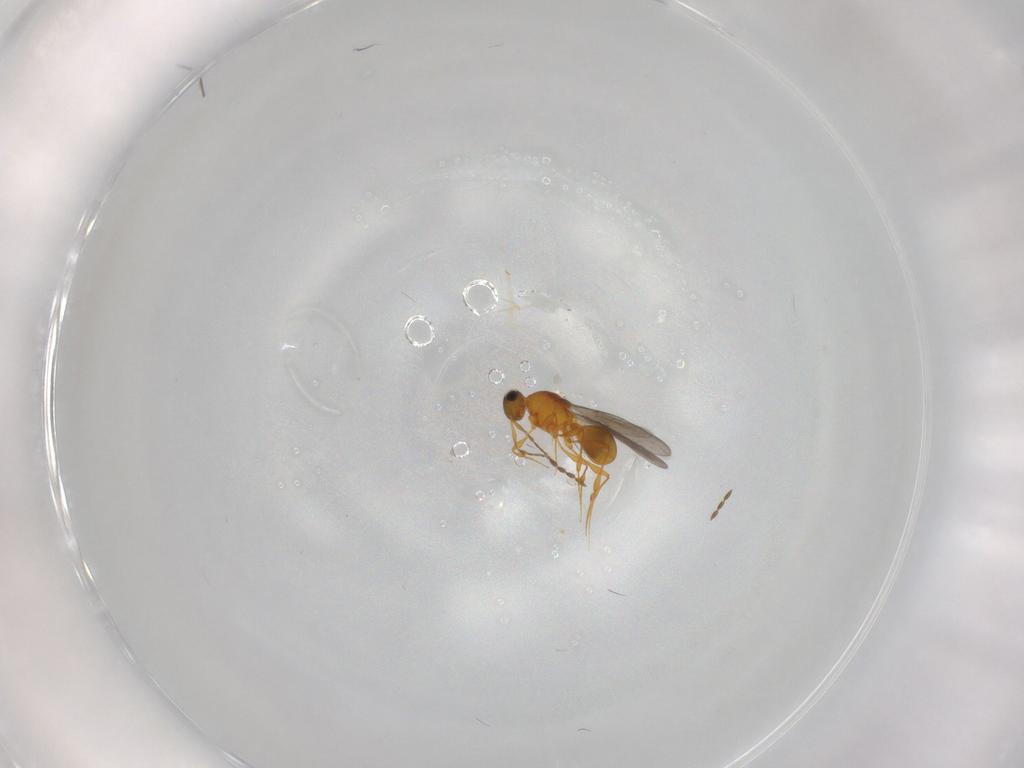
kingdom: Animalia
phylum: Arthropoda
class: Insecta
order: Hymenoptera
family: Platygastridae
